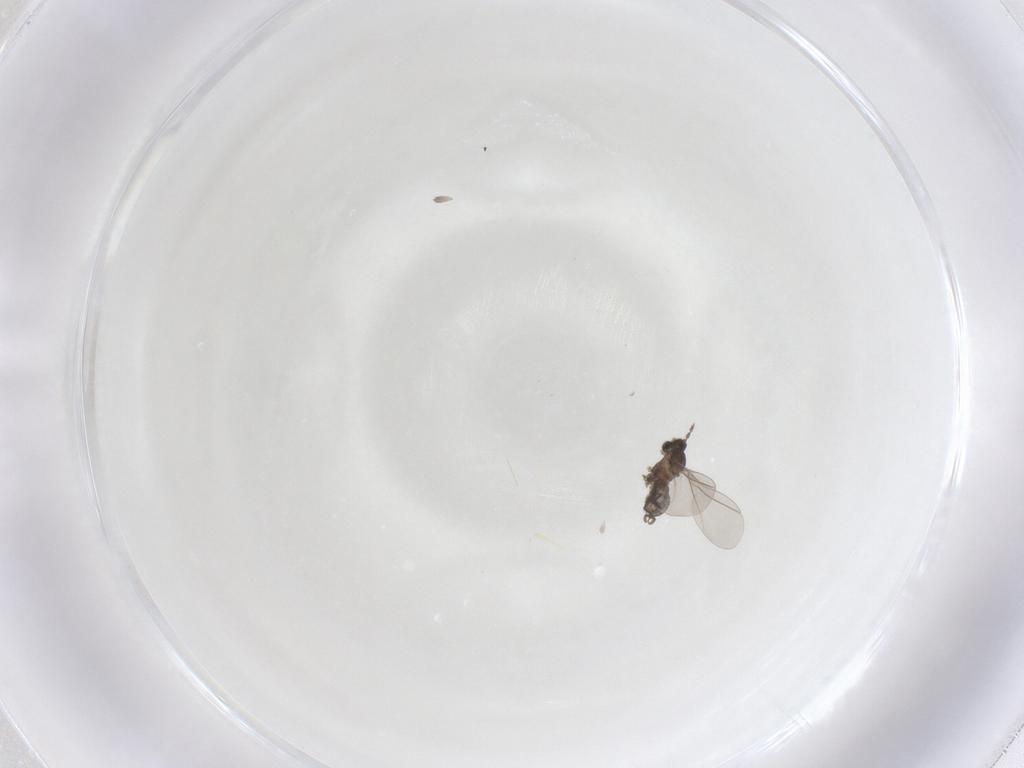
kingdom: Animalia
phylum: Arthropoda
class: Insecta
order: Diptera
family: Cecidomyiidae
